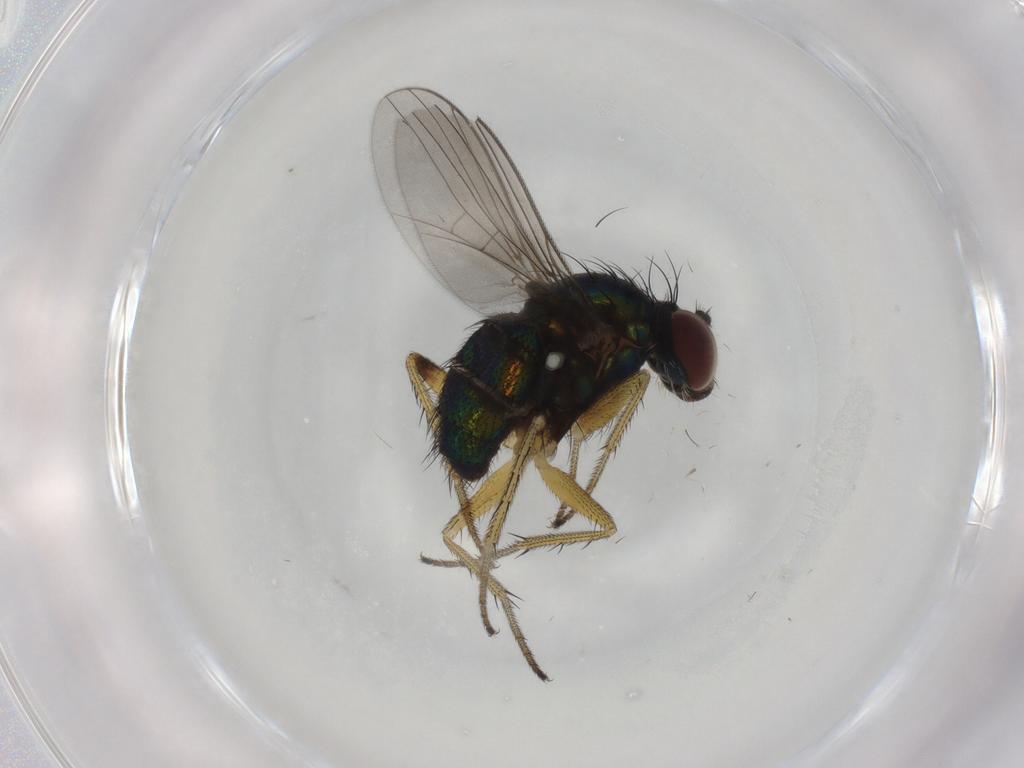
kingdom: Animalia
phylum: Arthropoda
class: Insecta
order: Diptera
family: Dolichopodidae
